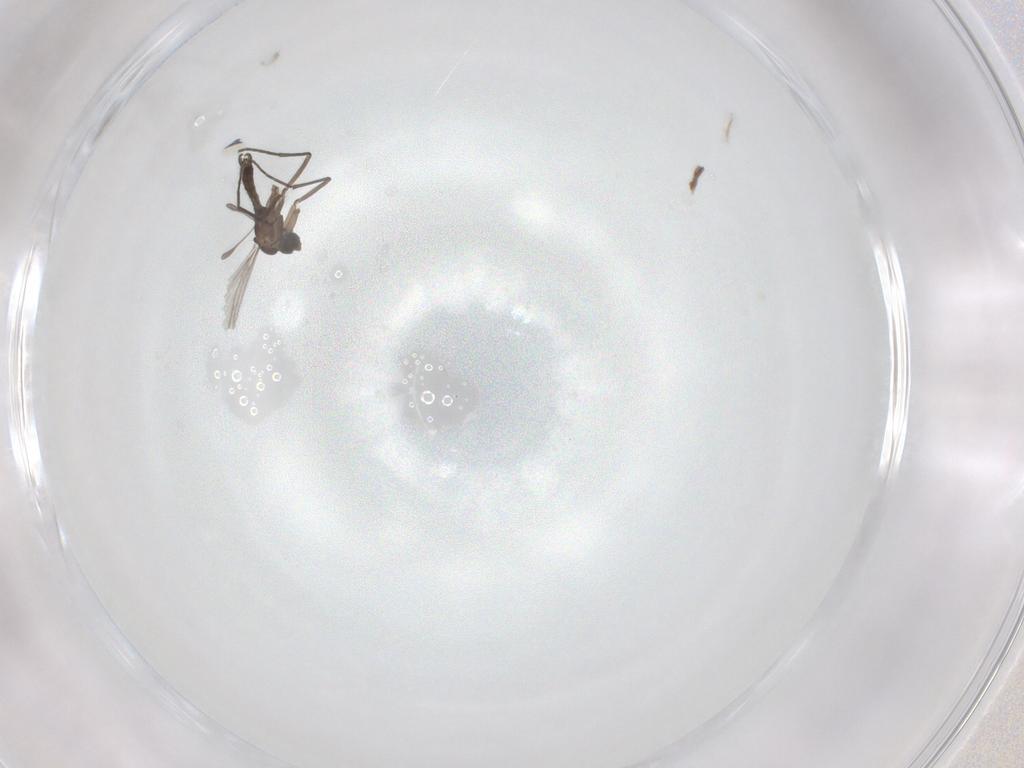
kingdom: Animalia
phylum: Arthropoda
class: Insecta
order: Diptera
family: Sciaridae
